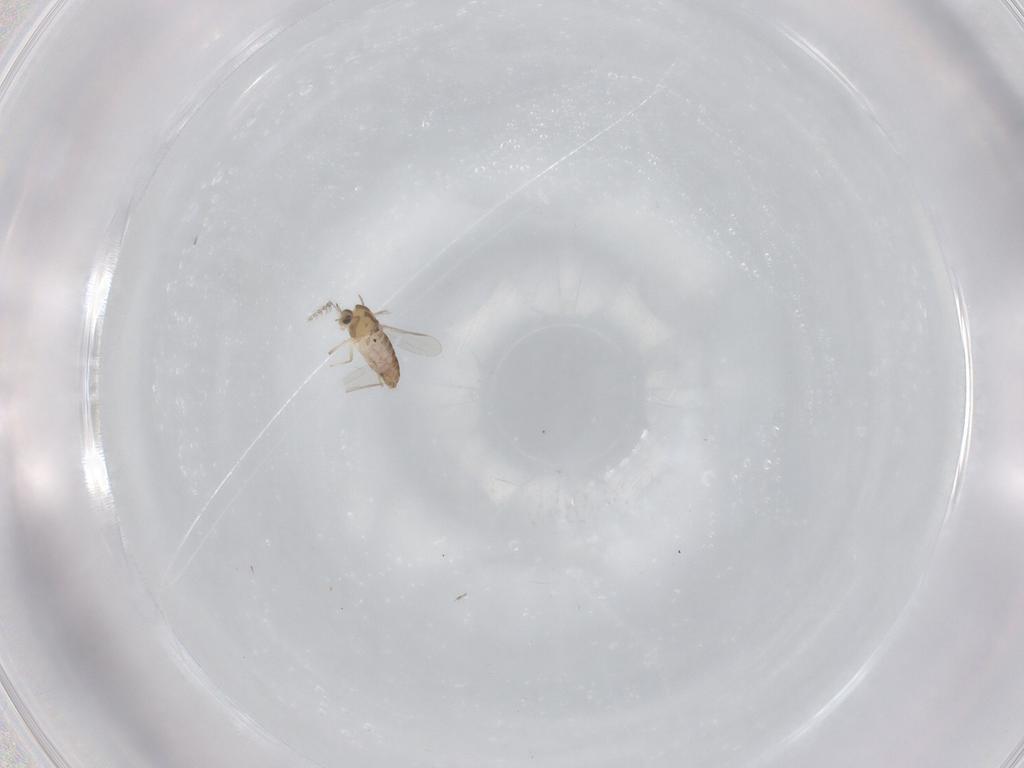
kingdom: Animalia
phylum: Arthropoda
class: Insecta
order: Diptera
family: Chironomidae
